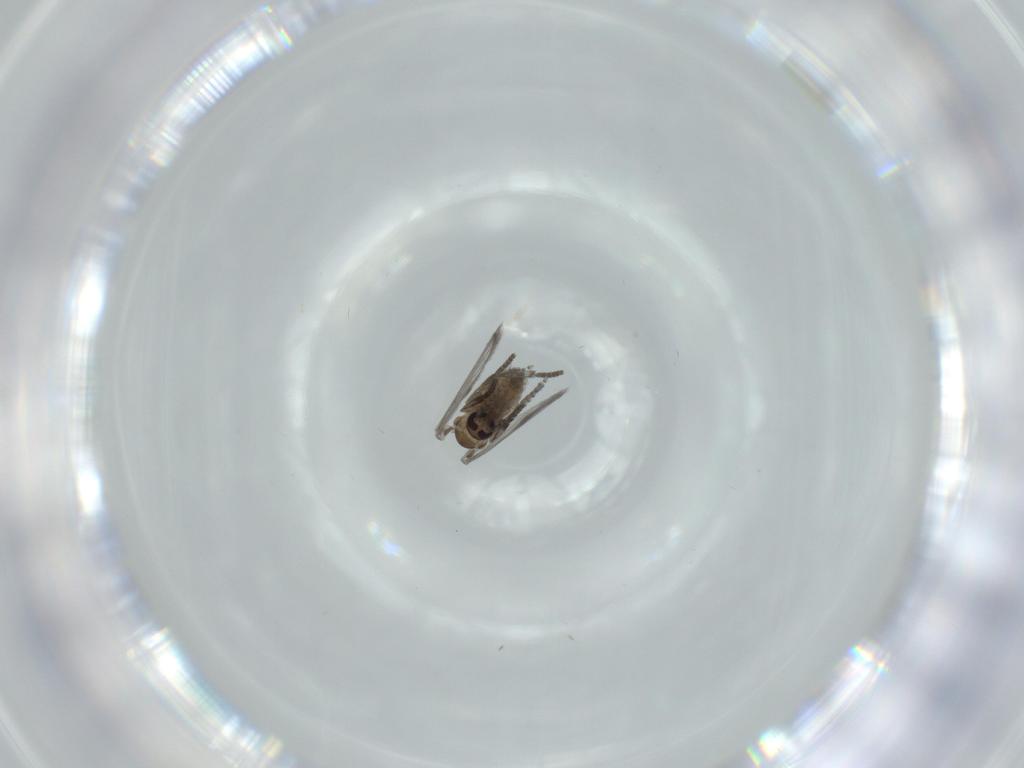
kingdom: Animalia
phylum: Arthropoda
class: Insecta
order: Diptera
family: Psychodidae
